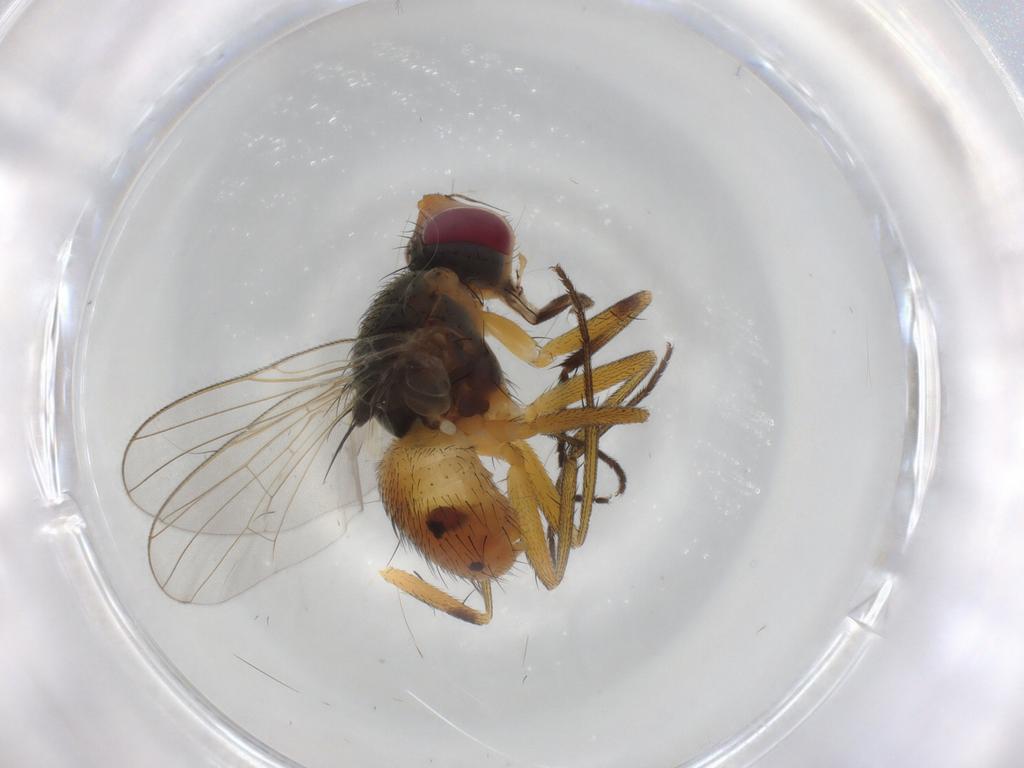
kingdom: Animalia
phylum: Arthropoda
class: Insecta
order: Diptera
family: Muscidae
